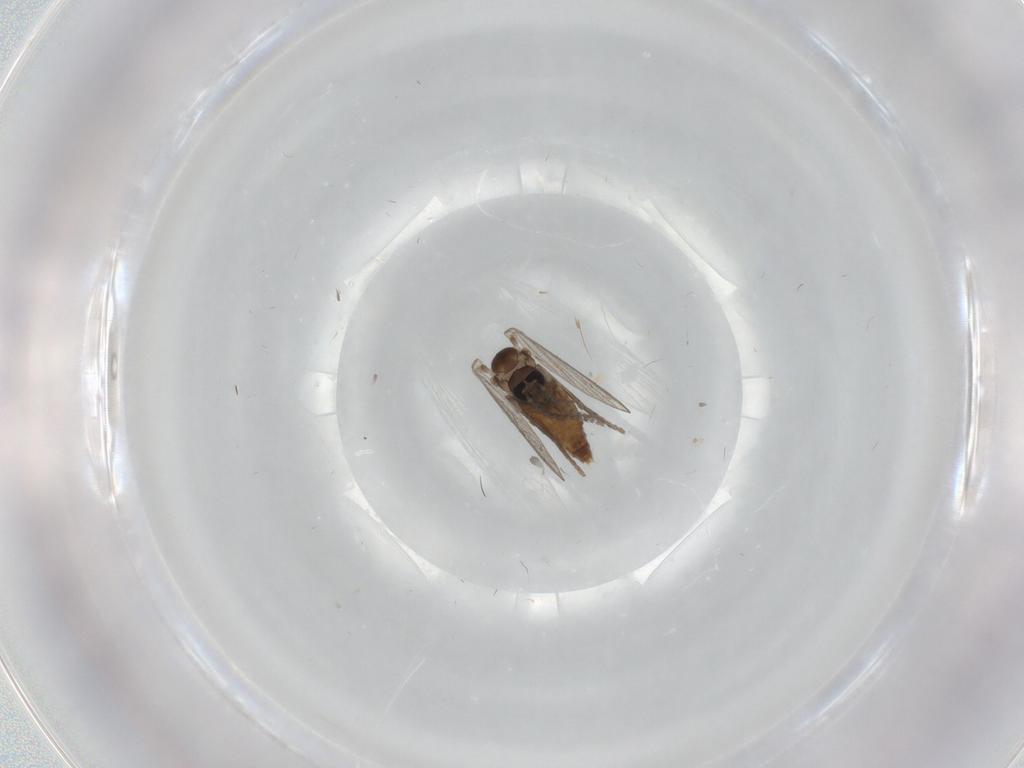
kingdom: Animalia
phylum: Arthropoda
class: Insecta
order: Diptera
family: Psychodidae
